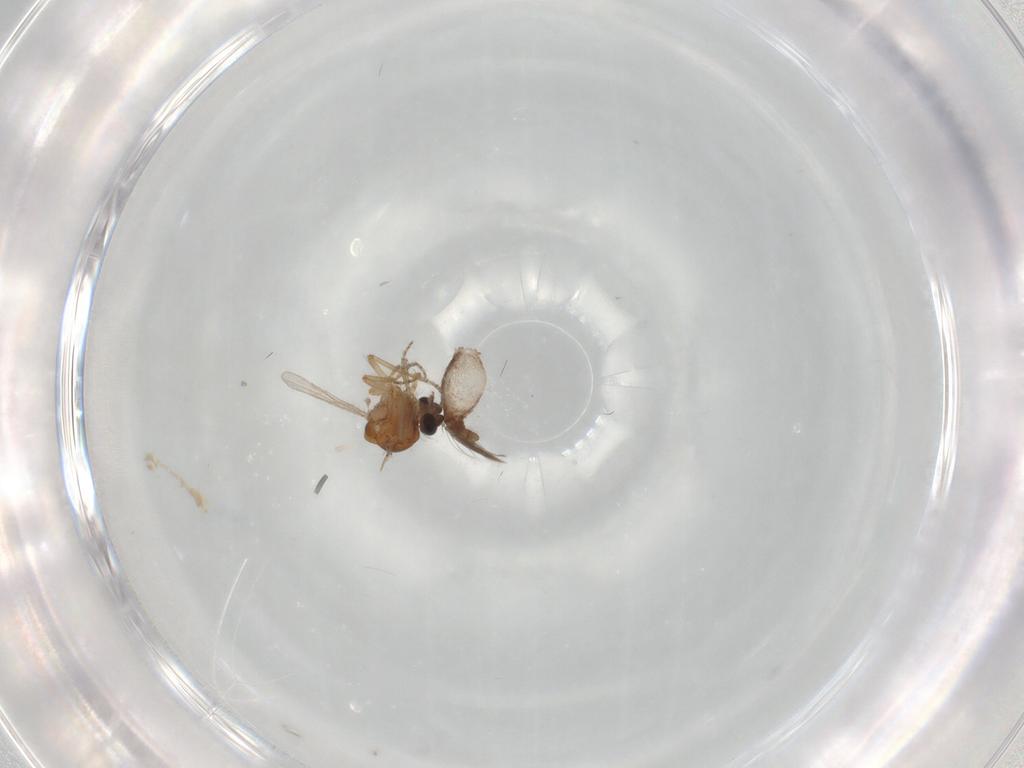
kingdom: Animalia
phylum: Arthropoda
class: Insecta
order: Diptera
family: Ceratopogonidae
